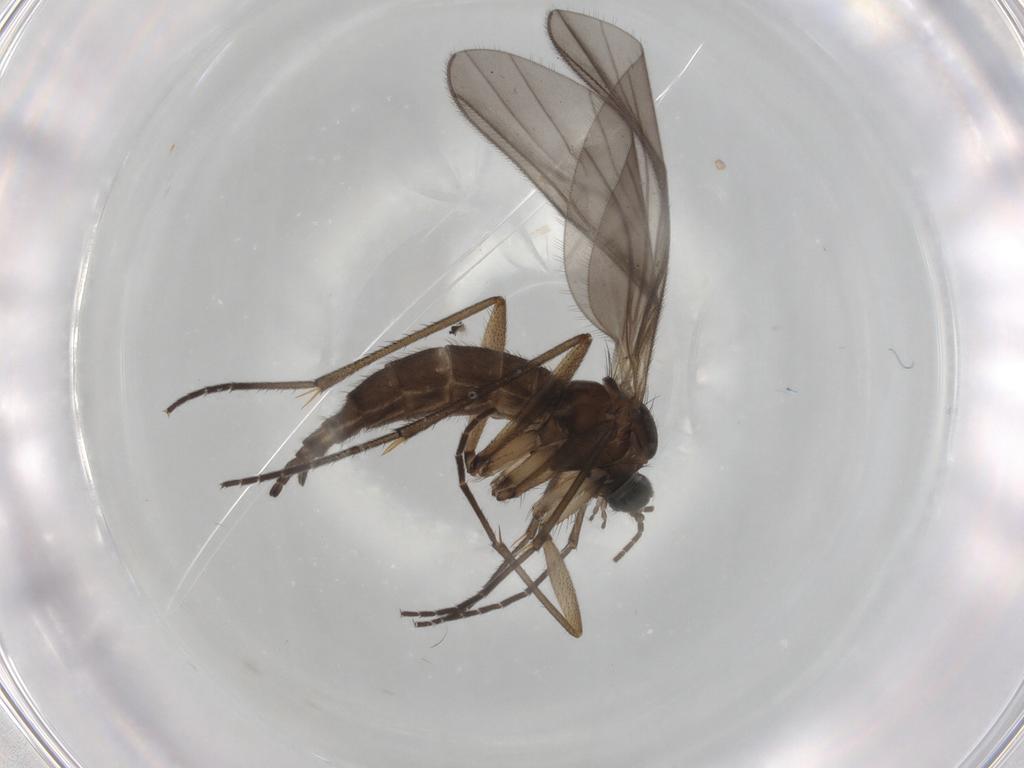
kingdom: Animalia
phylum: Arthropoda
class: Insecta
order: Diptera
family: Sciaridae
